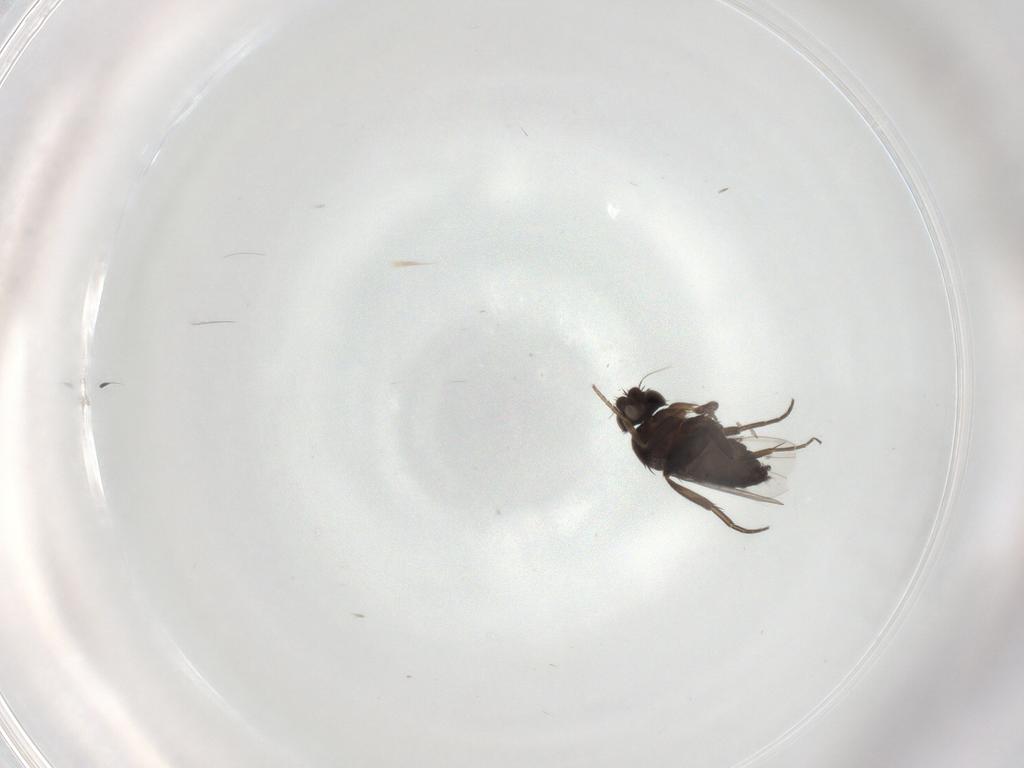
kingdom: Animalia
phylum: Arthropoda
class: Insecta
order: Diptera
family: Phoridae
